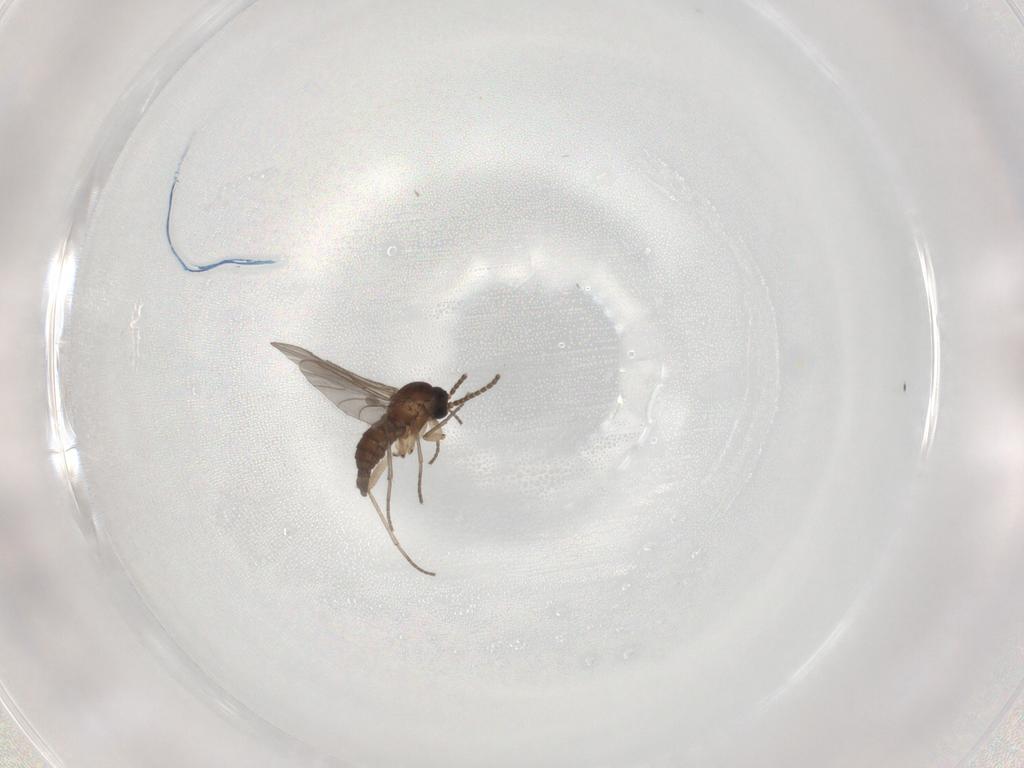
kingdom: Animalia
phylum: Arthropoda
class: Insecta
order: Diptera
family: Sciaridae
